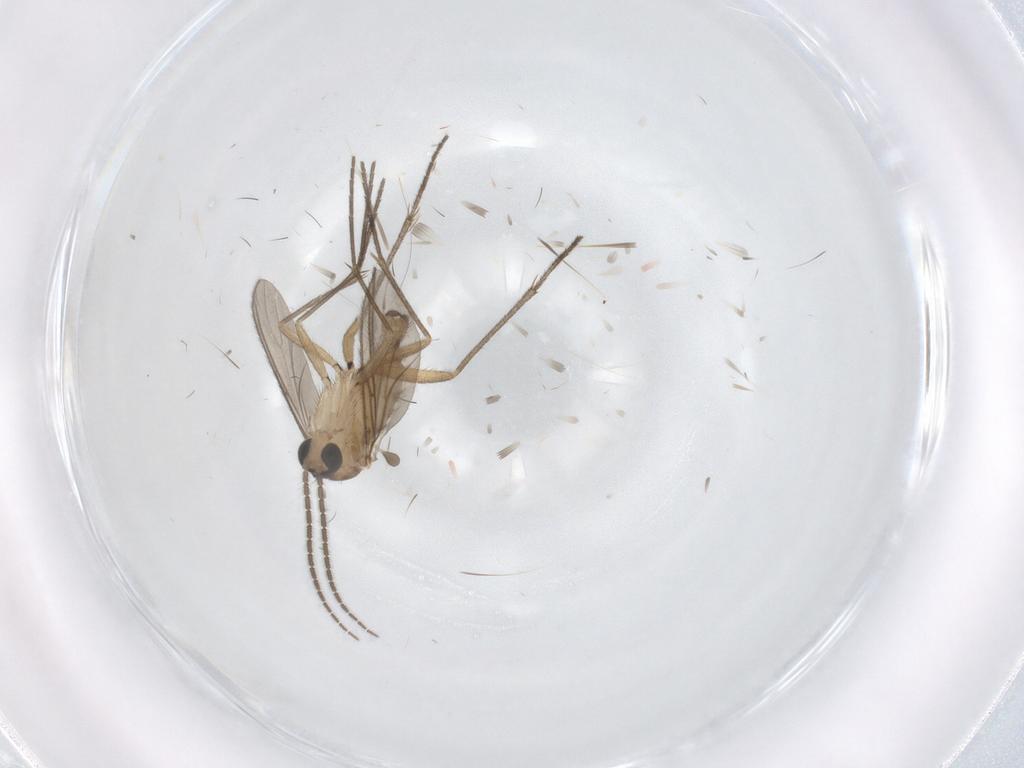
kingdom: Animalia
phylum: Arthropoda
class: Insecta
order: Diptera
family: Sciaridae
